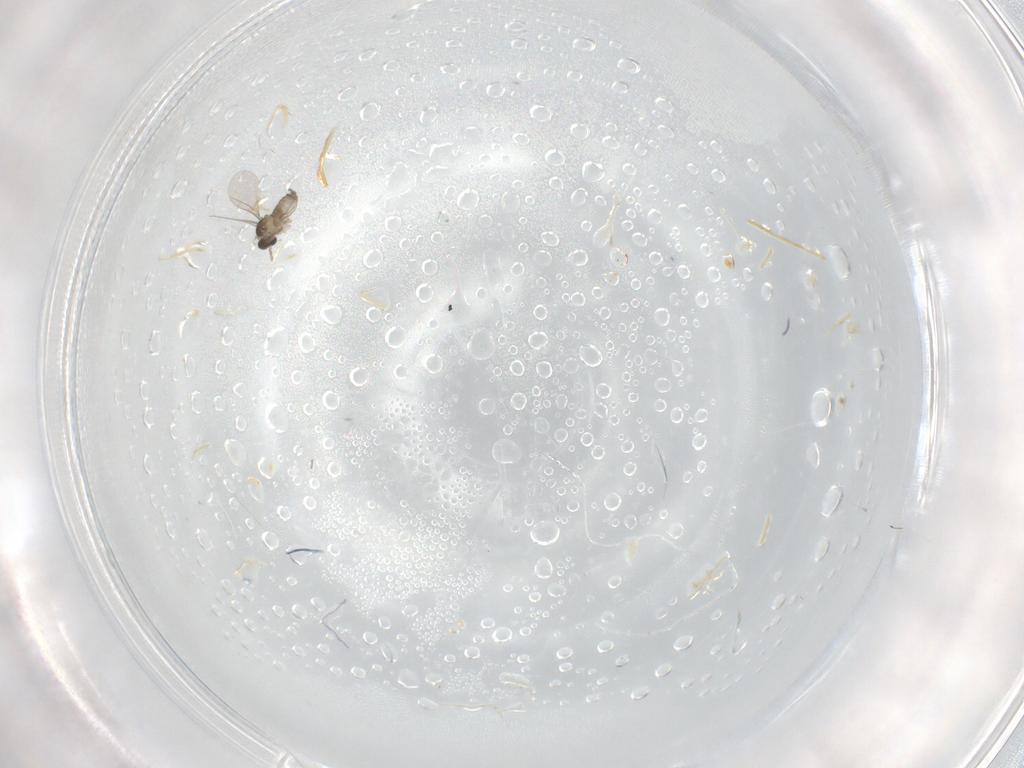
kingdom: Animalia
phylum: Arthropoda
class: Insecta
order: Diptera
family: Cecidomyiidae
